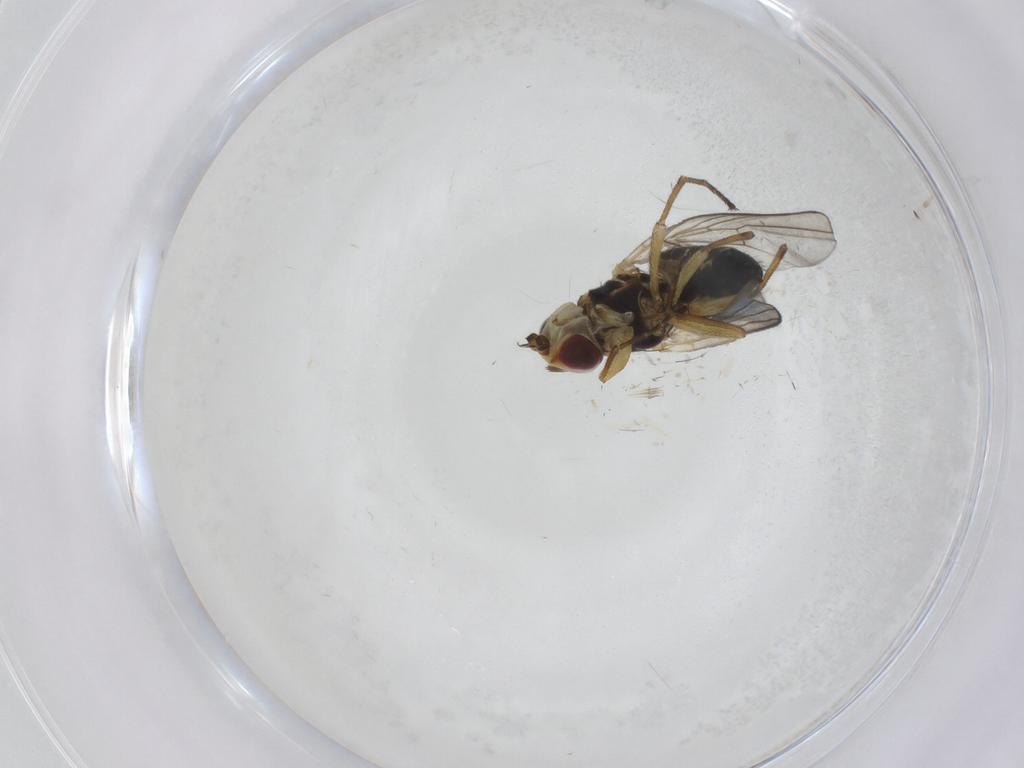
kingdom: Animalia
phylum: Arthropoda
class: Insecta
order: Diptera
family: Agromyzidae
